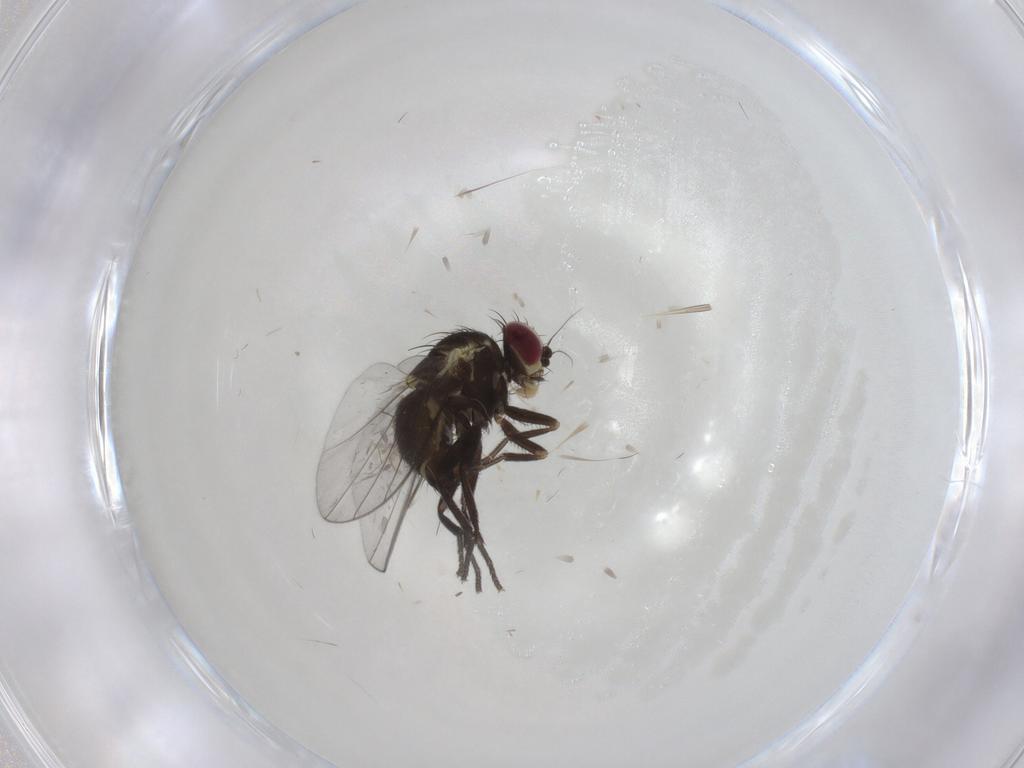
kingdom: Animalia
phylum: Arthropoda
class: Insecta
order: Diptera
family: Agromyzidae
